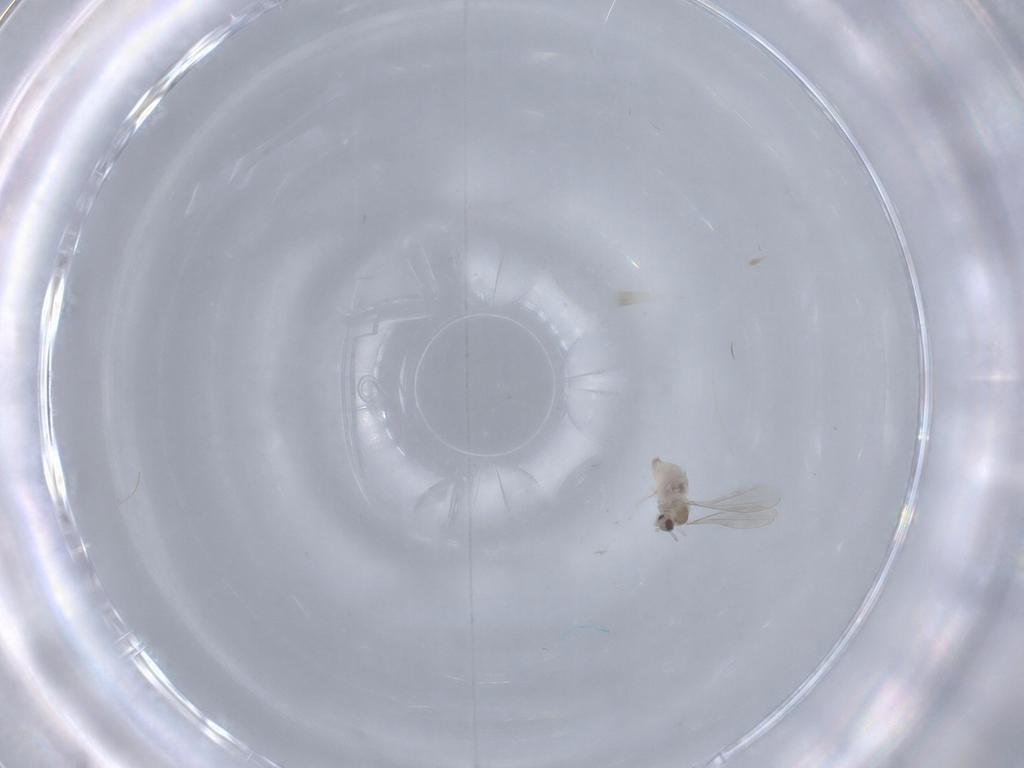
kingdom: Animalia
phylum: Arthropoda
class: Insecta
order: Diptera
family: Cecidomyiidae
